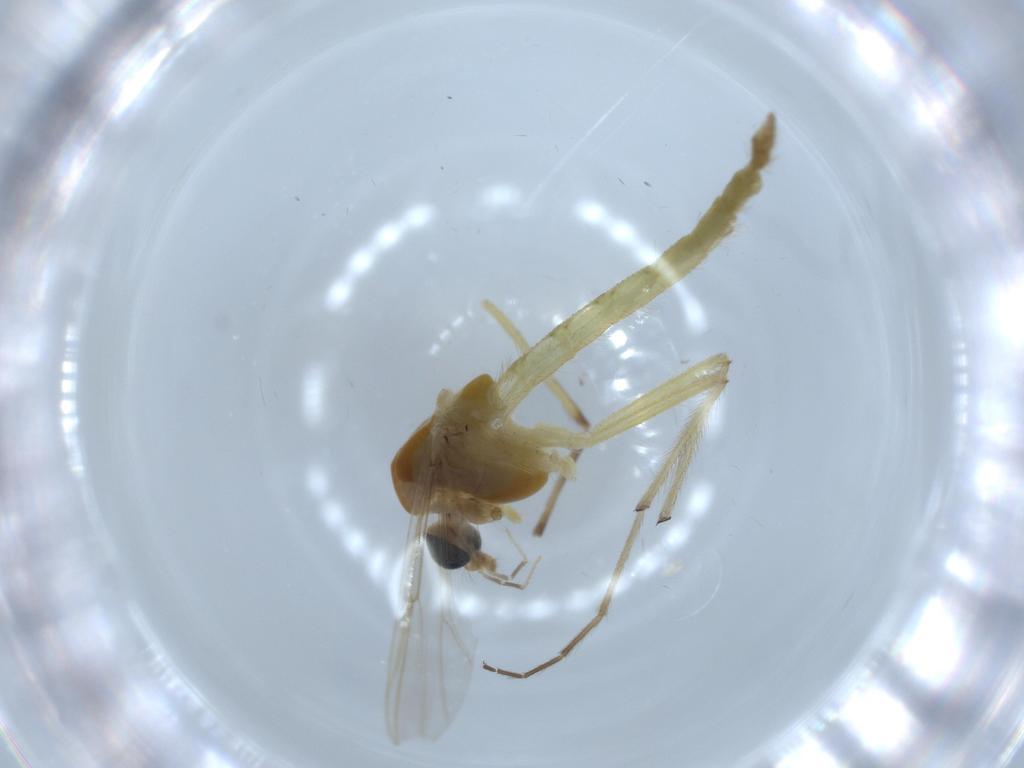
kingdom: Animalia
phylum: Arthropoda
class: Insecta
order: Diptera
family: Chironomidae
